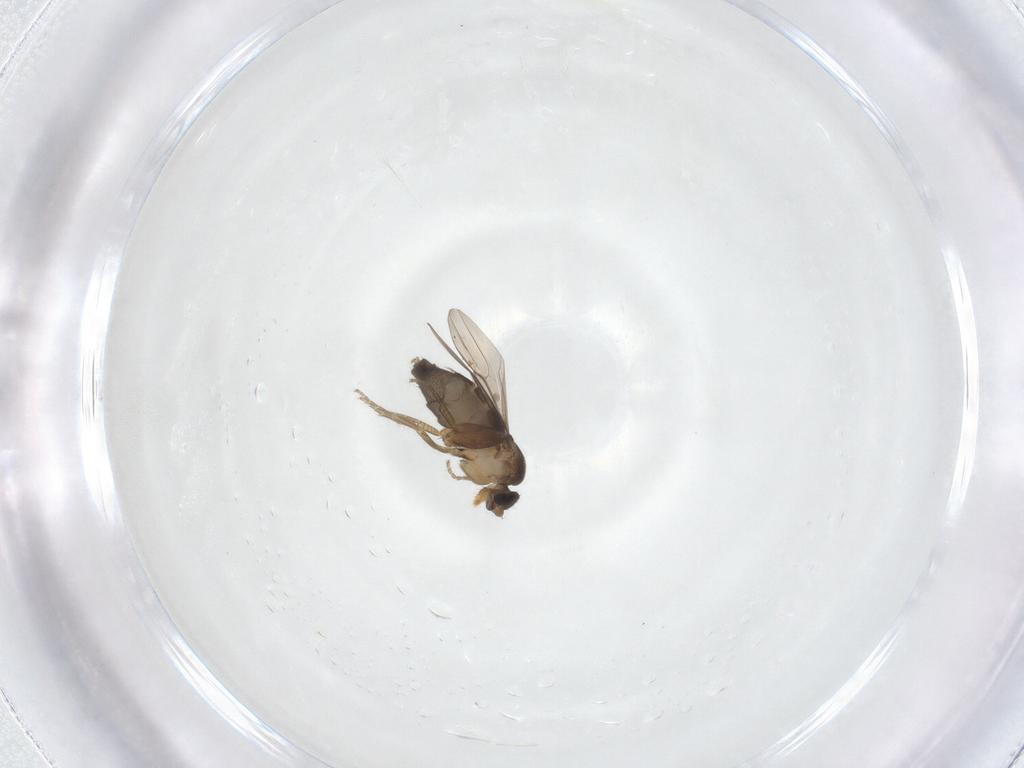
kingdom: Animalia
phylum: Arthropoda
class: Insecta
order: Diptera
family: Phoridae
